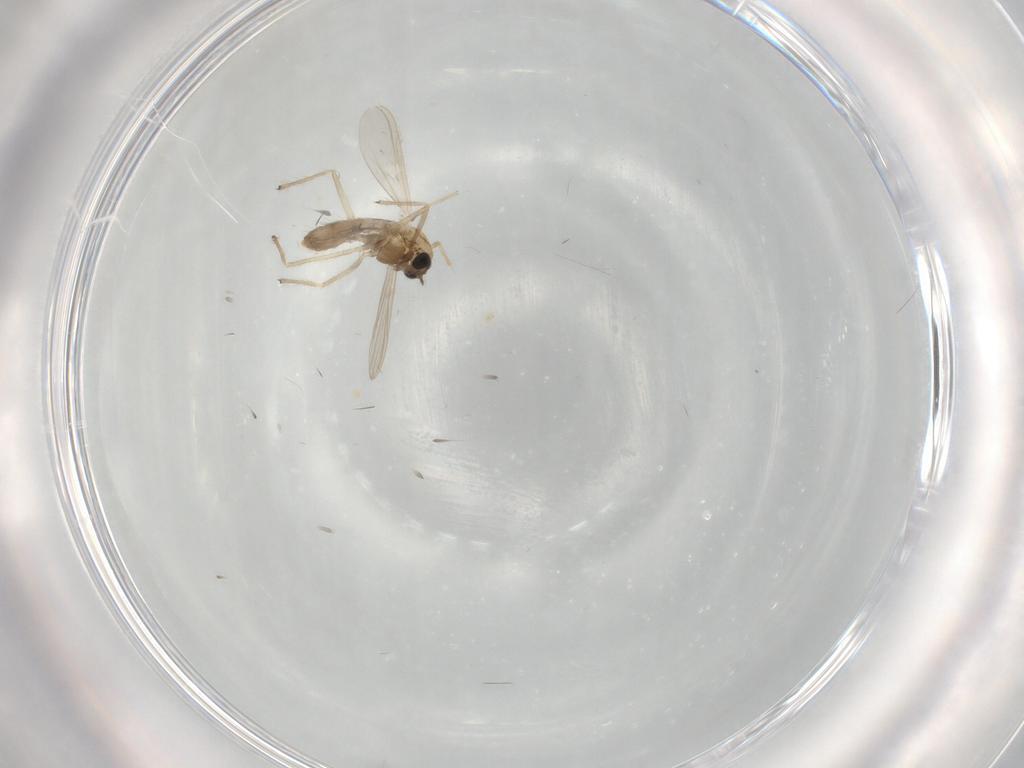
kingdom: Animalia
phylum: Arthropoda
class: Insecta
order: Diptera
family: Chironomidae
